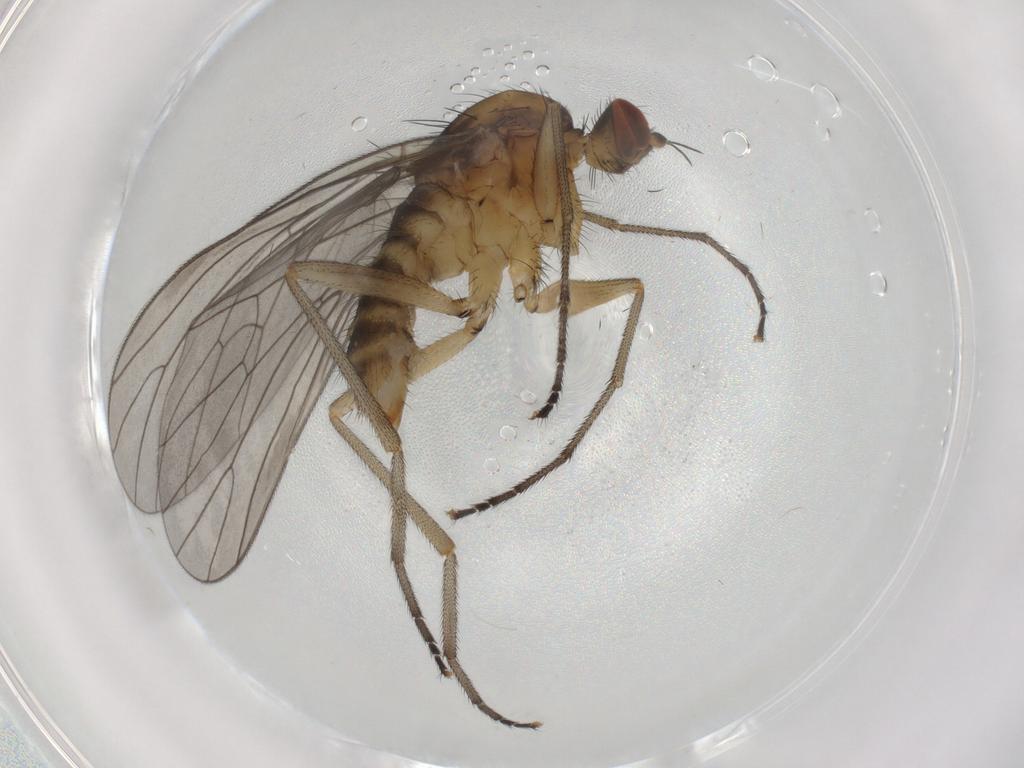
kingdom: Animalia
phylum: Arthropoda
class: Insecta
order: Diptera
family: Brachystomatidae
